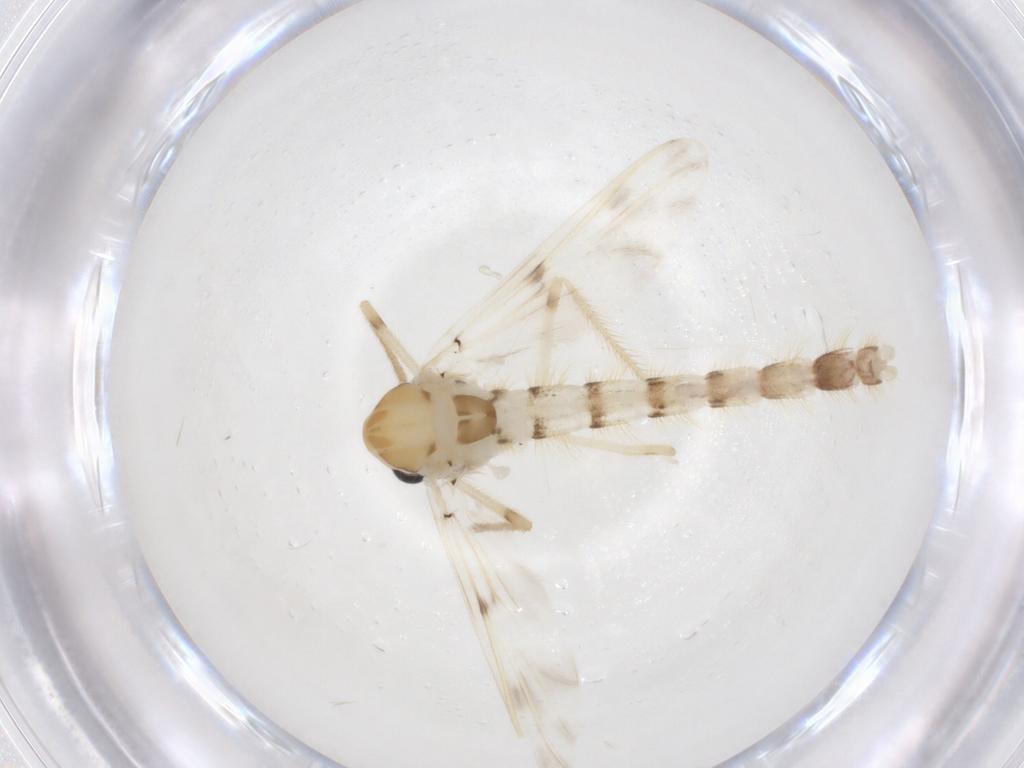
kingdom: Animalia
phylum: Arthropoda
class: Insecta
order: Diptera
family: Chironomidae
